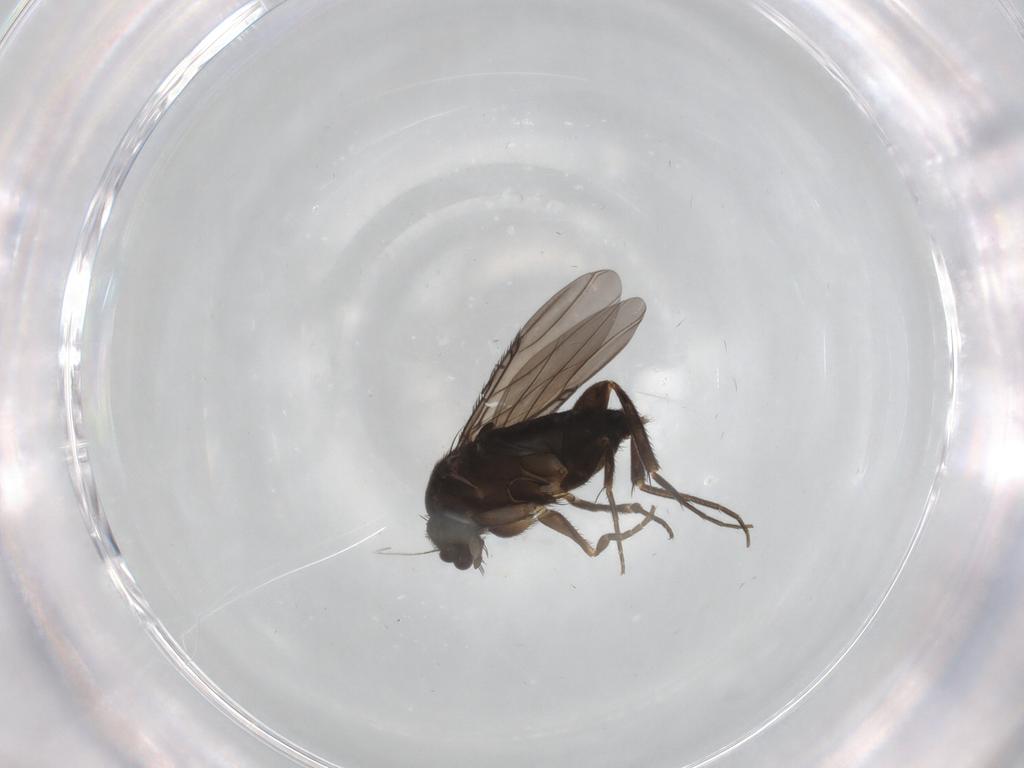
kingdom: Animalia
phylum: Arthropoda
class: Insecta
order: Diptera
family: Phoridae
